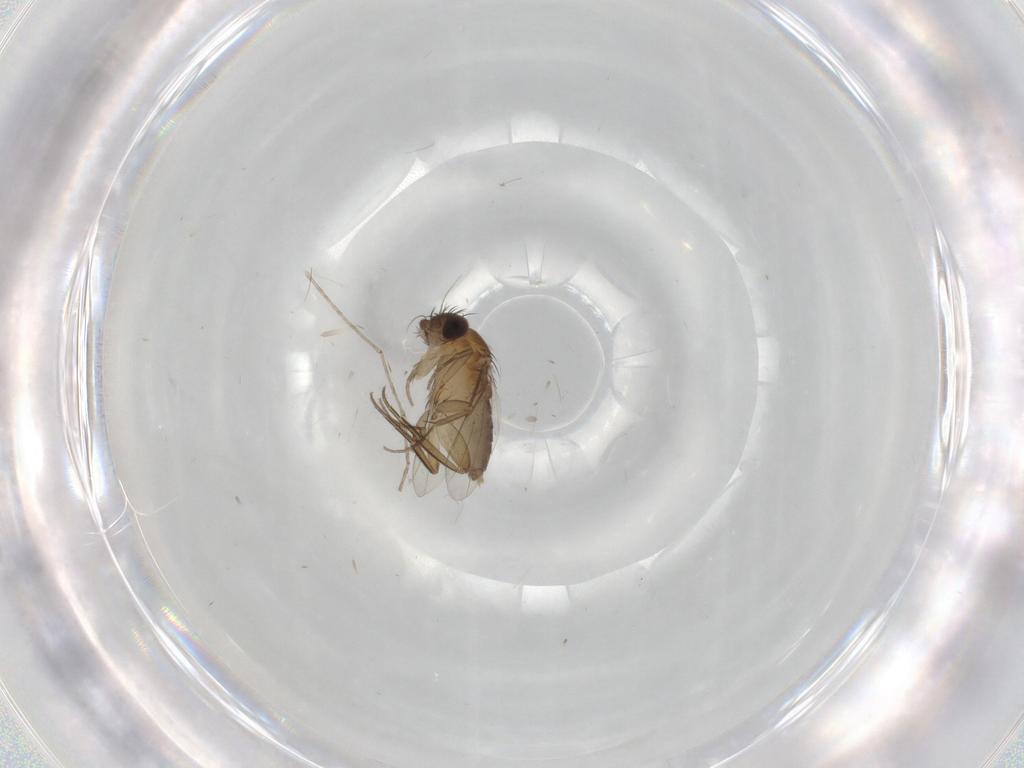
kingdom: Animalia
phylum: Arthropoda
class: Insecta
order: Diptera
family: Phoridae
